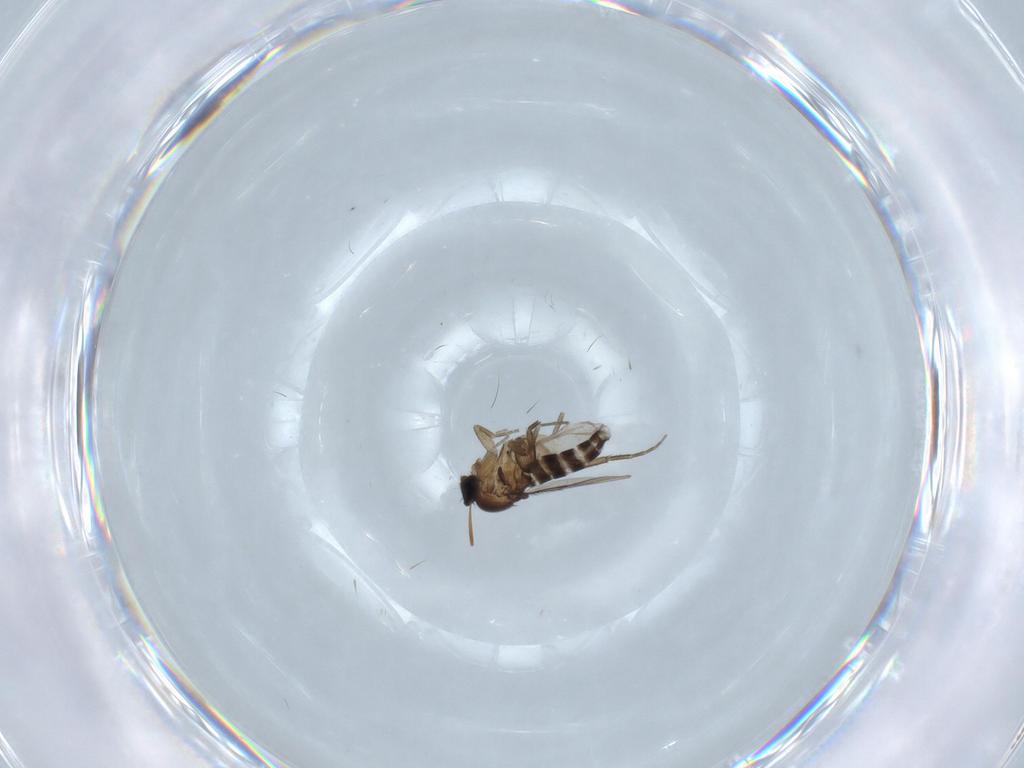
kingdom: Animalia
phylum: Arthropoda
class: Insecta
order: Diptera
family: Phoridae
